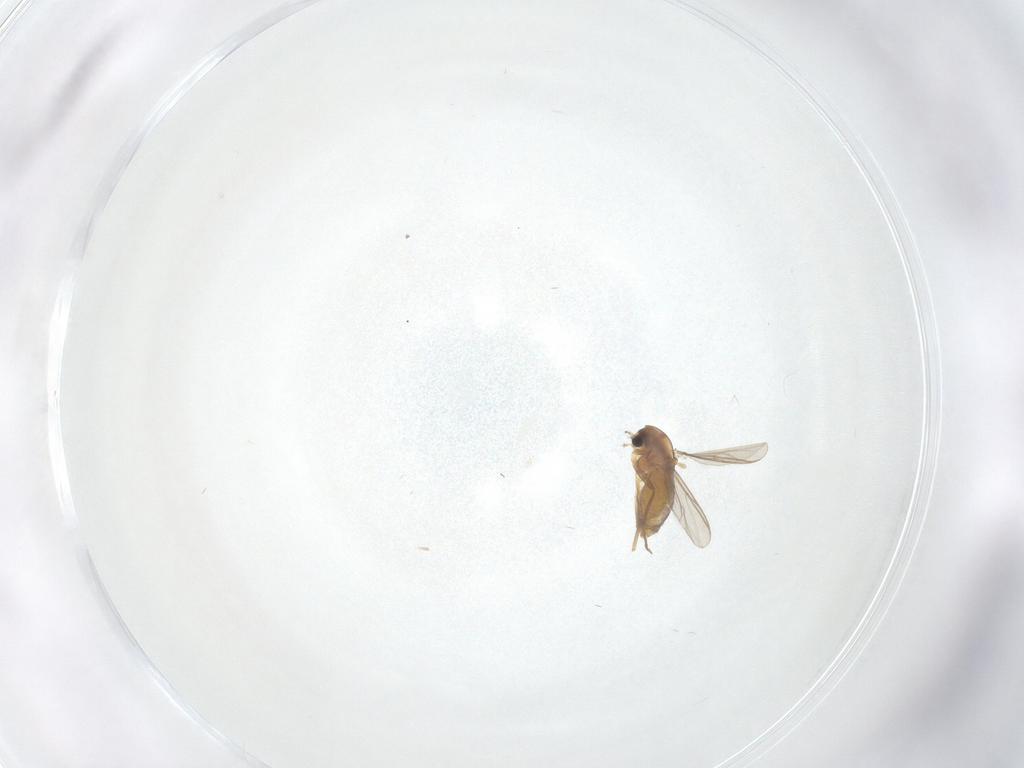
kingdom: Animalia
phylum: Arthropoda
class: Insecta
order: Diptera
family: Chironomidae
